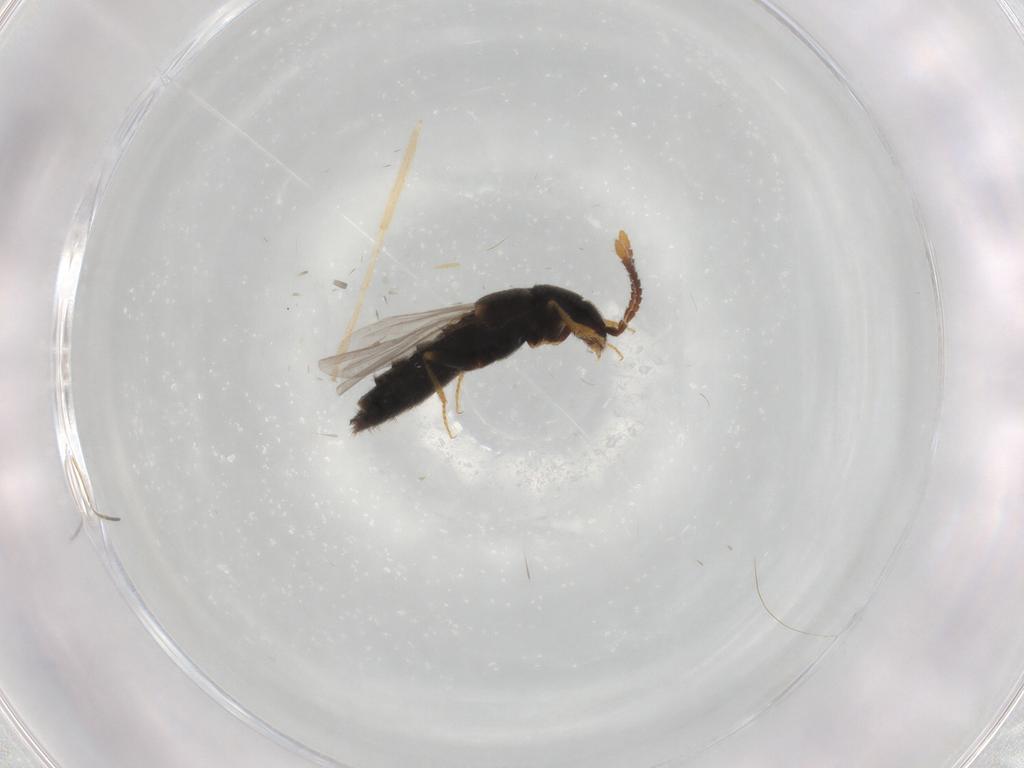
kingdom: Animalia
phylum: Arthropoda
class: Insecta
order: Coleoptera
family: Staphylinidae
